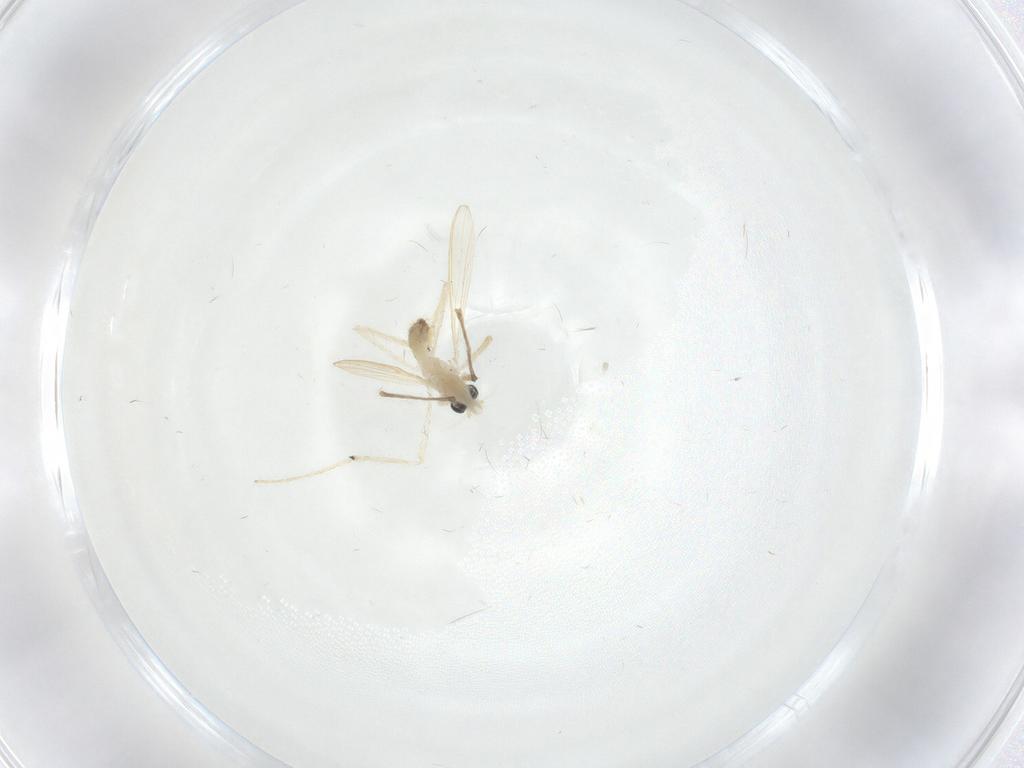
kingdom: Animalia
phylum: Arthropoda
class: Insecta
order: Diptera
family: Chironomidae
